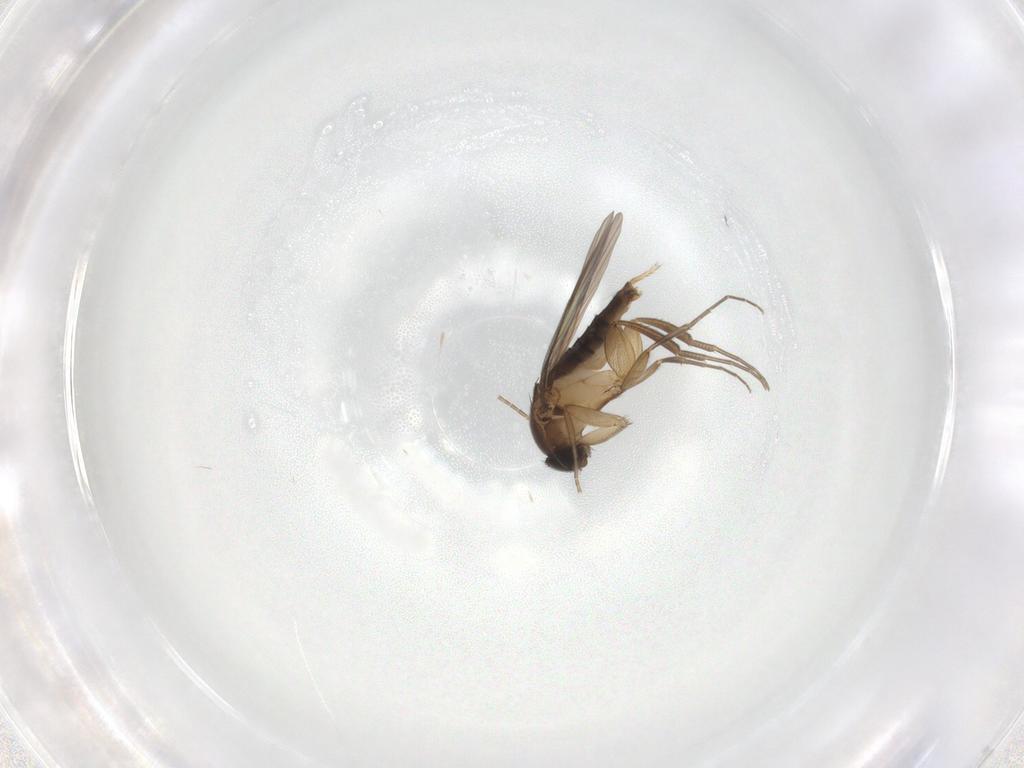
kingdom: Animalia
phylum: Arthropoda
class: Insecta
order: Diptera
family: Phoridae
